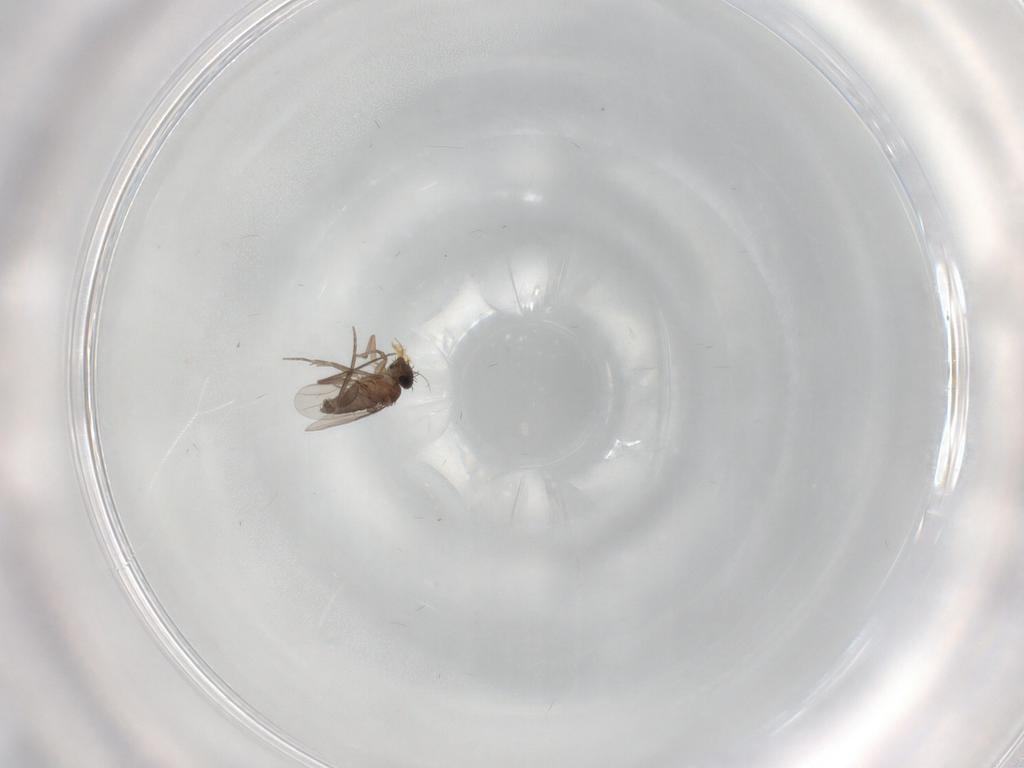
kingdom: Animalia
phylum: Arthropoda
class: Insecta
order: Diptera
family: Phoridae
